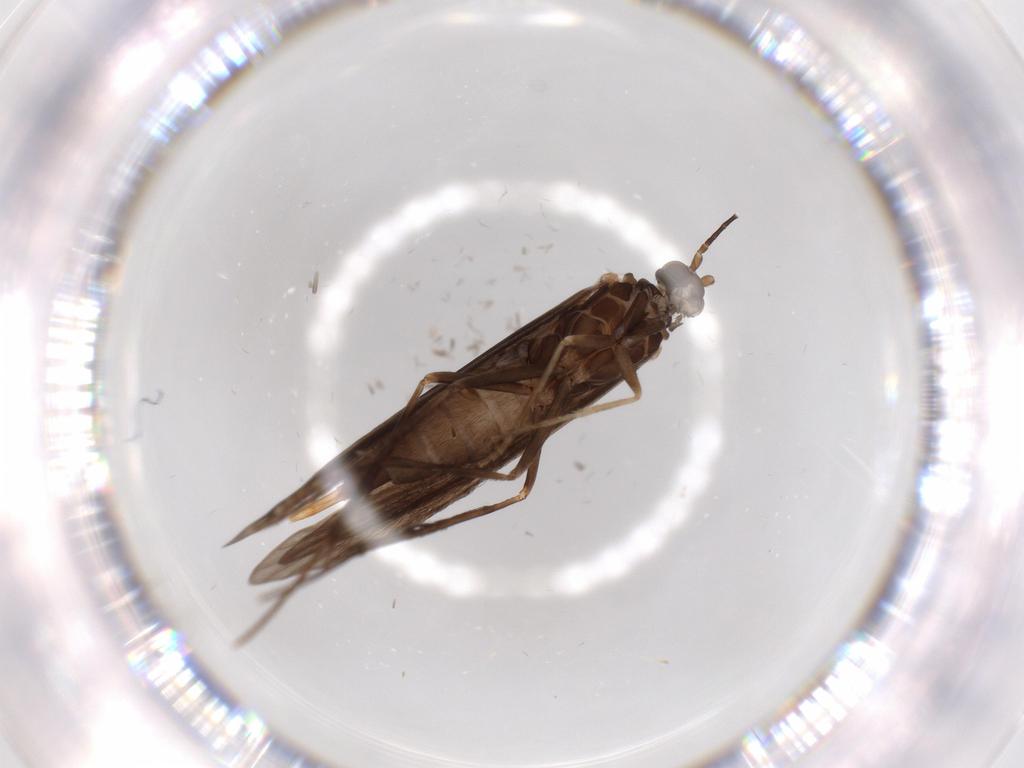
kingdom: Animalia
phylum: Arthropoda
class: Insecta
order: Trichoptera
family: Xiphocentronidae
